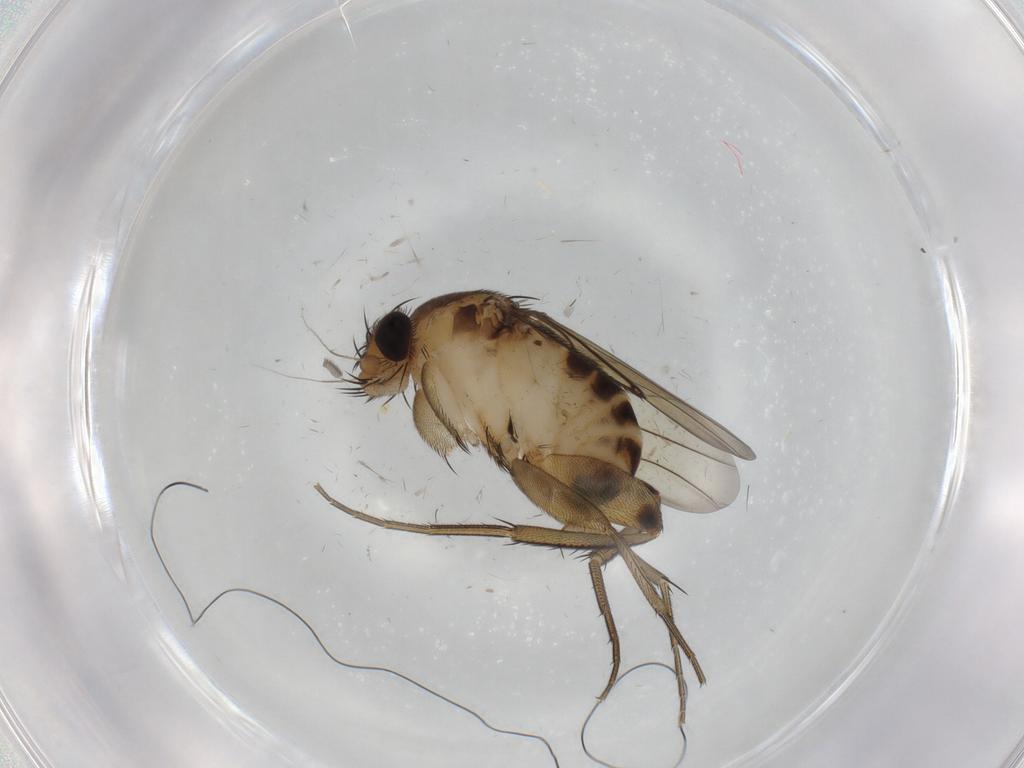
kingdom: Animalia
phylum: Arthropoda
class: Insecta
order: Diptera
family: Phoridae
